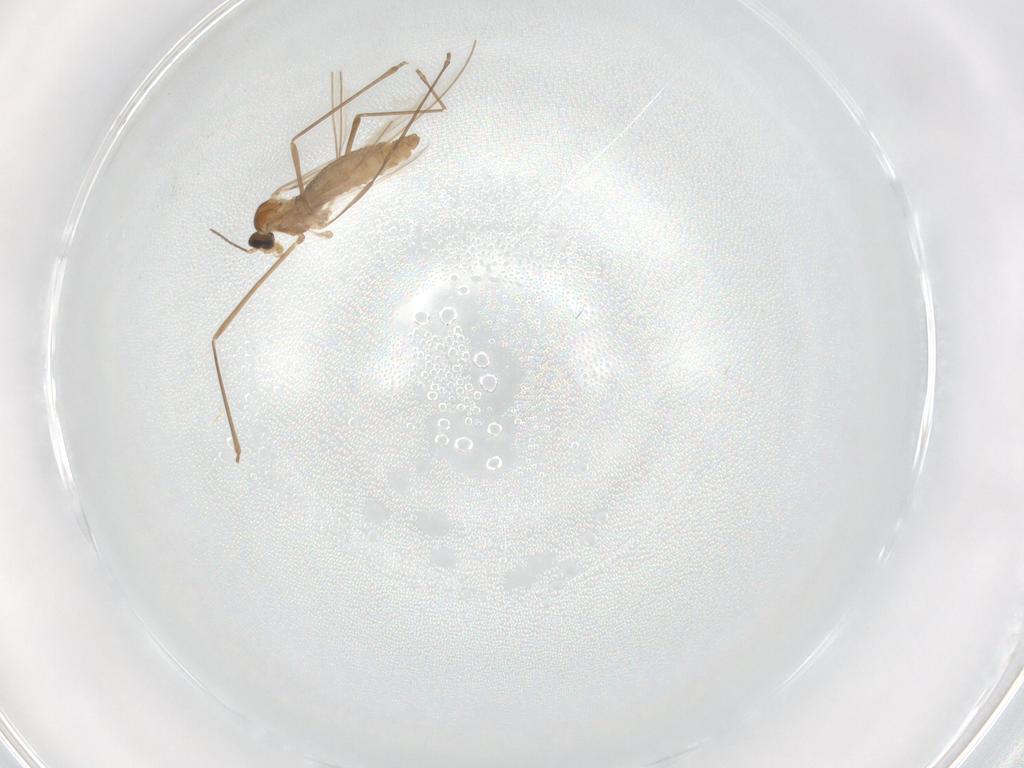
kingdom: Animalia
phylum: Arthropoda
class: Insecta
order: Diptera
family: Cecidomyiidae
